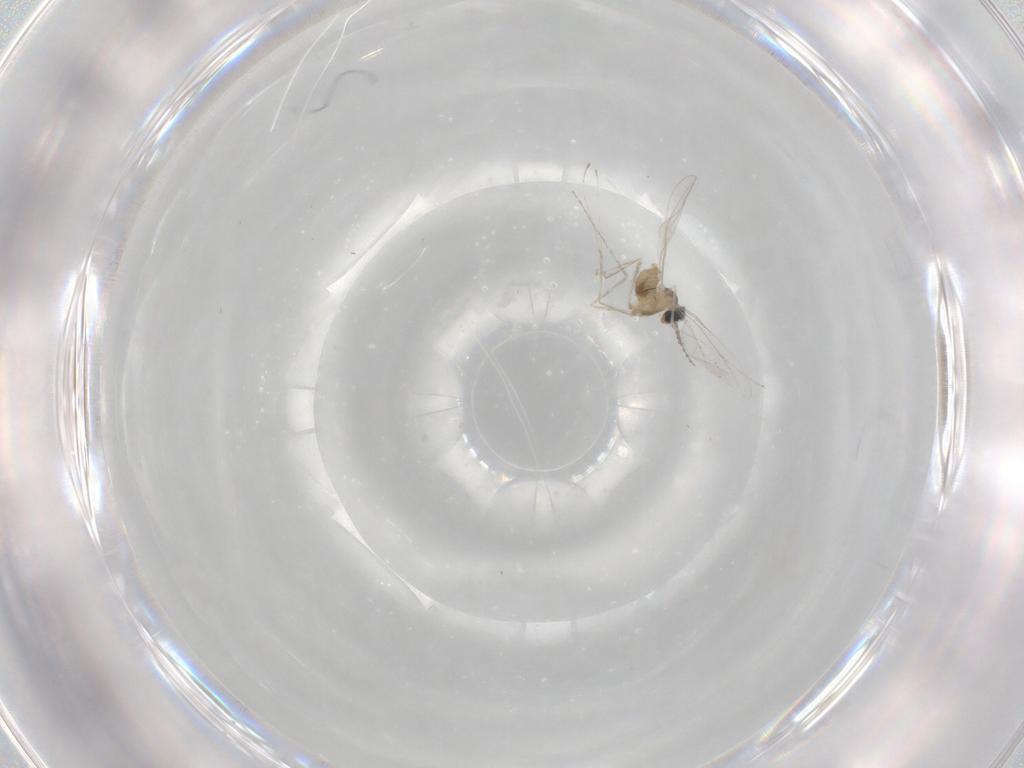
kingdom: Animalia
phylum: Arthropoda
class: Insecta
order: Diptera
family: Cecidomyiidae
